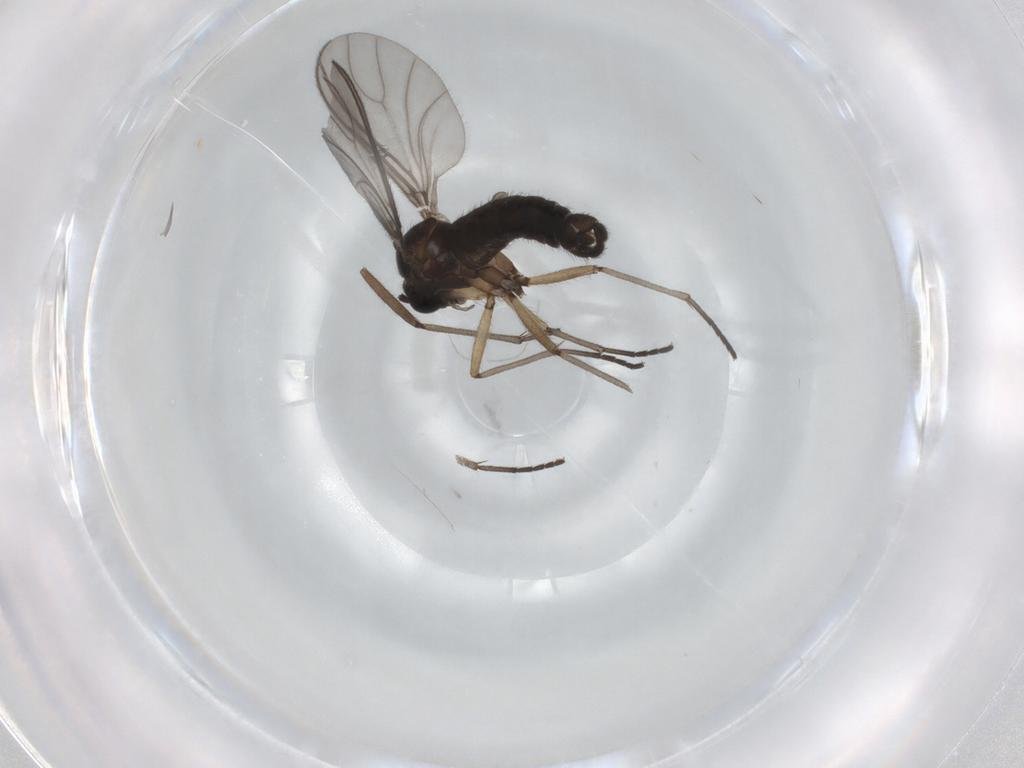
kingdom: Animalia
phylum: Arthropoda
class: Insecta
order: Diptera
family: Sciaridae
